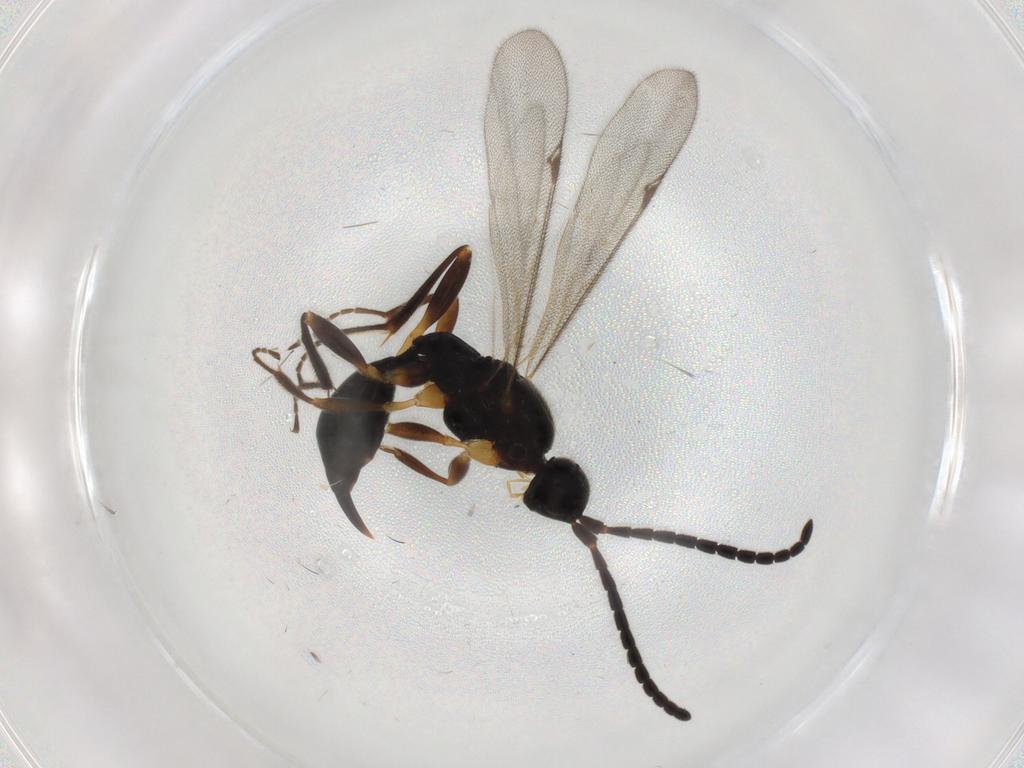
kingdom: Animalia
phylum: Arthropoda
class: Insecta
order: Hymenoptera
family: Proctotrupidae
